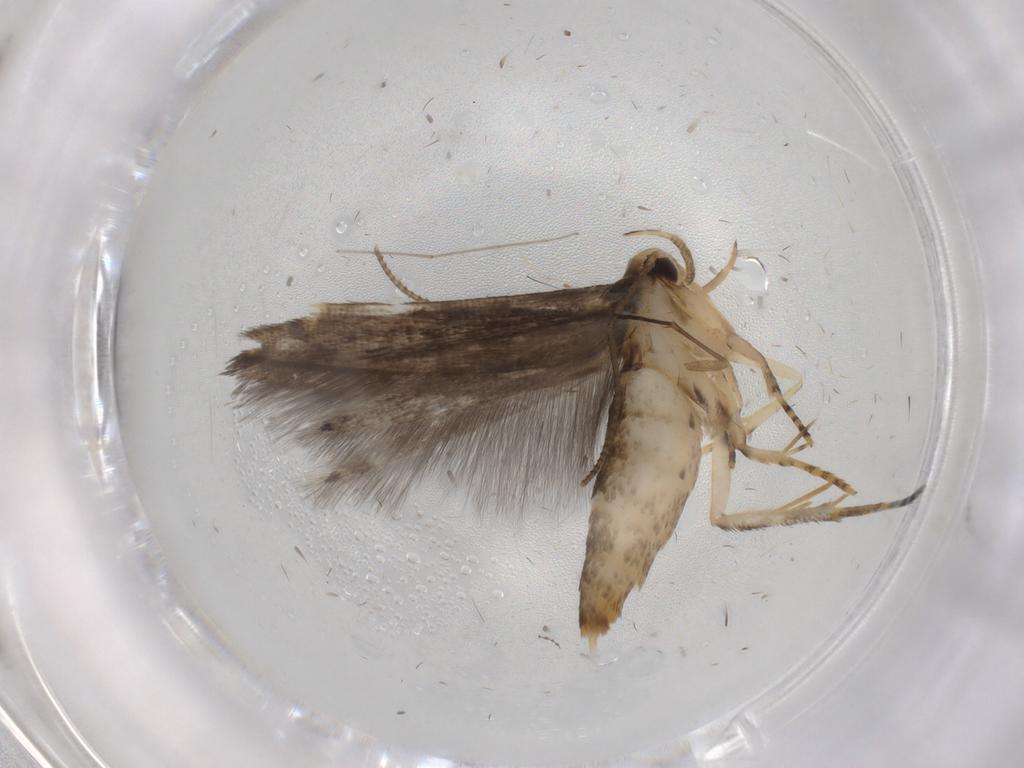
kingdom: Animalia
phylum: Arthropoda
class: Insecta
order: Lepidoptera
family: Cosmopterigidae
